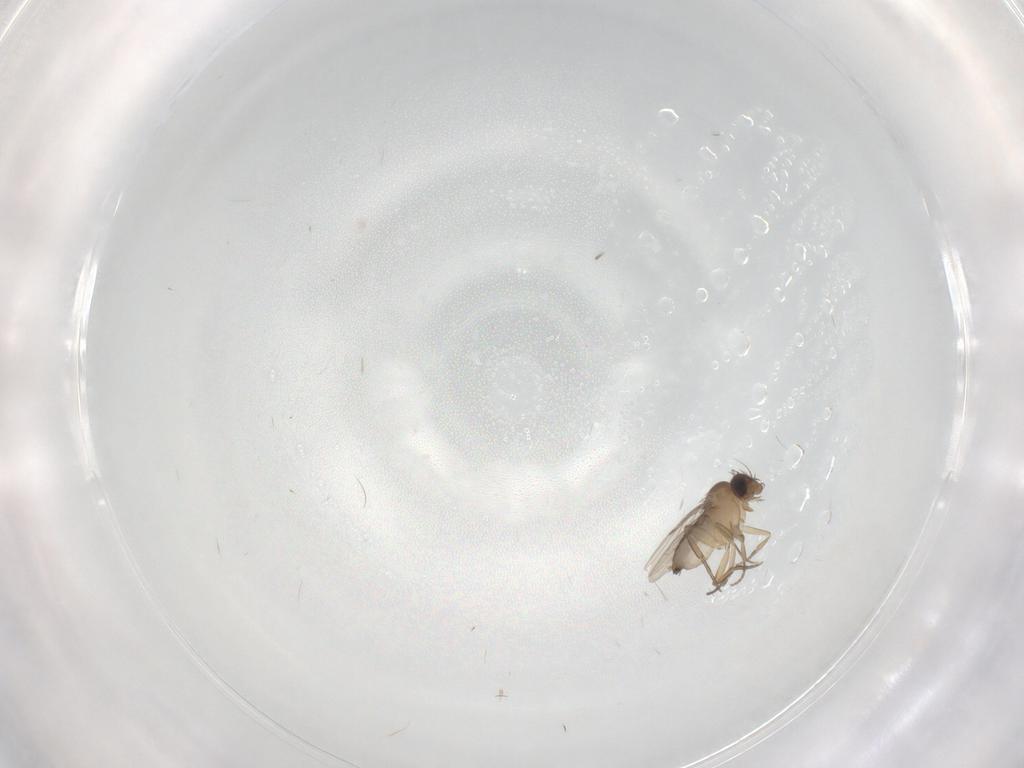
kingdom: Animalia
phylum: Arthropoda
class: Insecta
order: Diptera
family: Phoridae
